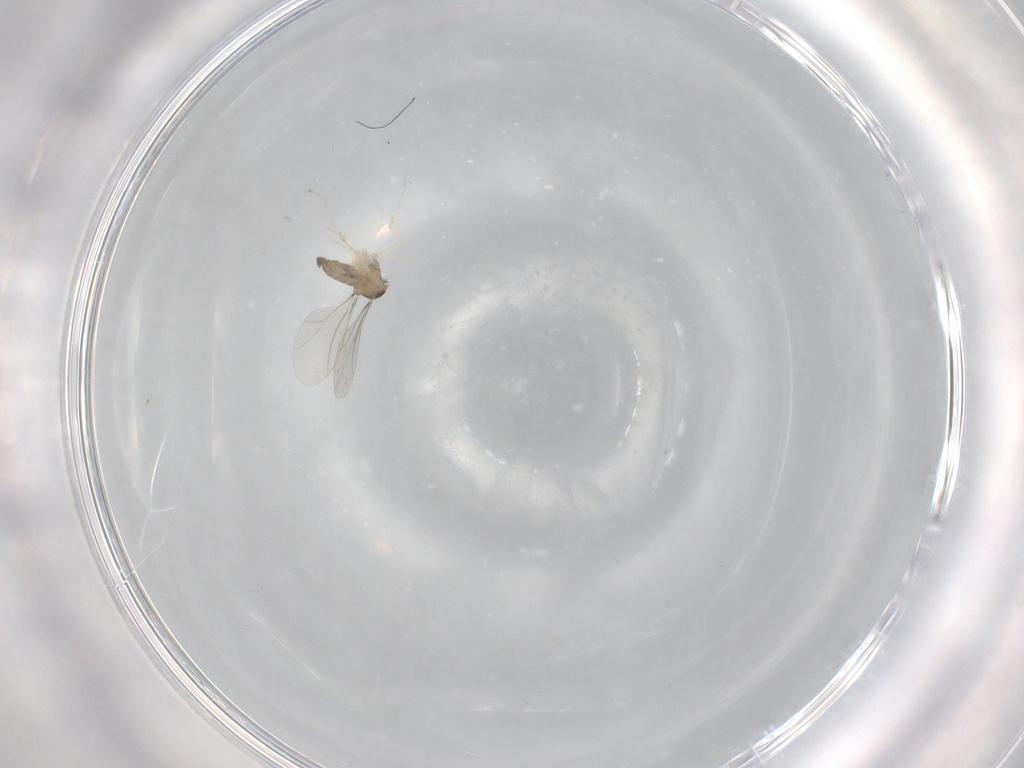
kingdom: Animalia
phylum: Arthropoda
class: Insecta
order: Diptera
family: Cecidomyiidae
